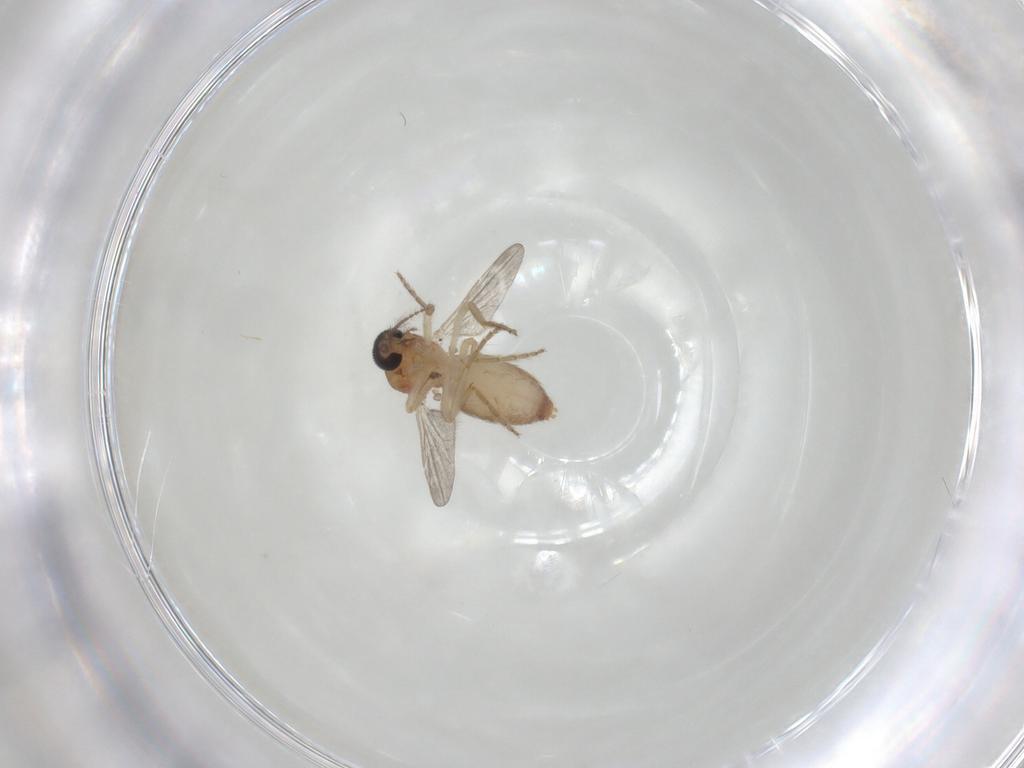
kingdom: Animalia
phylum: Arthropoda
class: Insecta
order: Diptera
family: Ceratopogonidae
